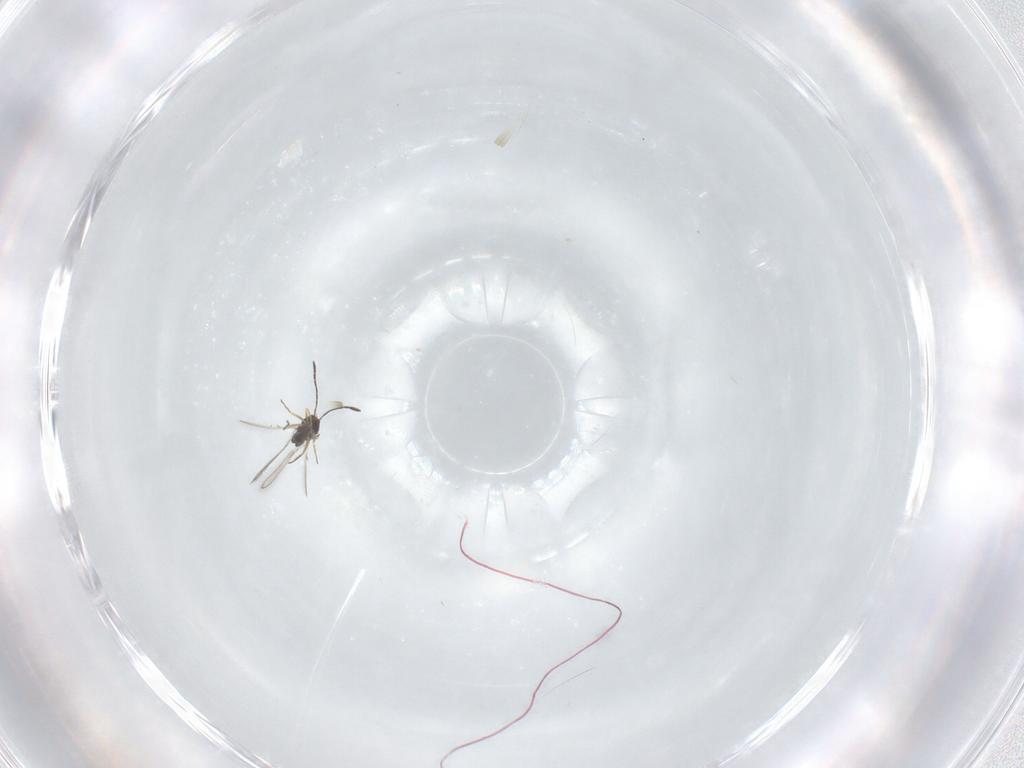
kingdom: Animalia
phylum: Arthropoda
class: Insecta
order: Hymenoptera
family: Mymaridae
